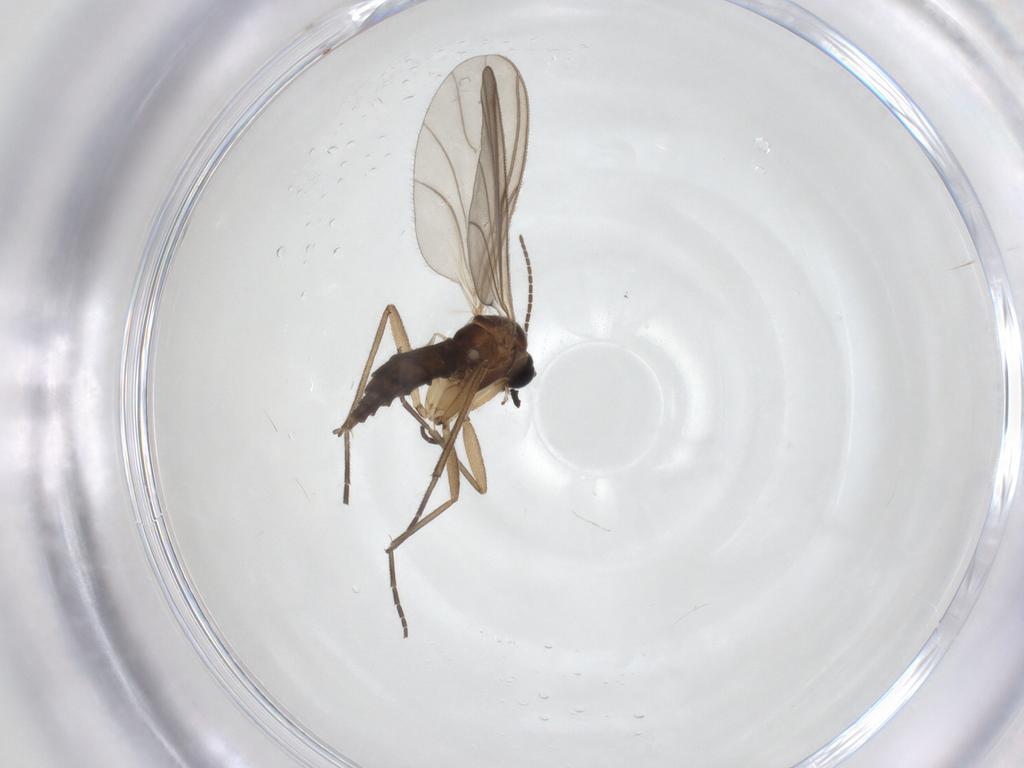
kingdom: Animalia
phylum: Arthropoda
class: Insecta
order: Diptera
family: Sciaridae
